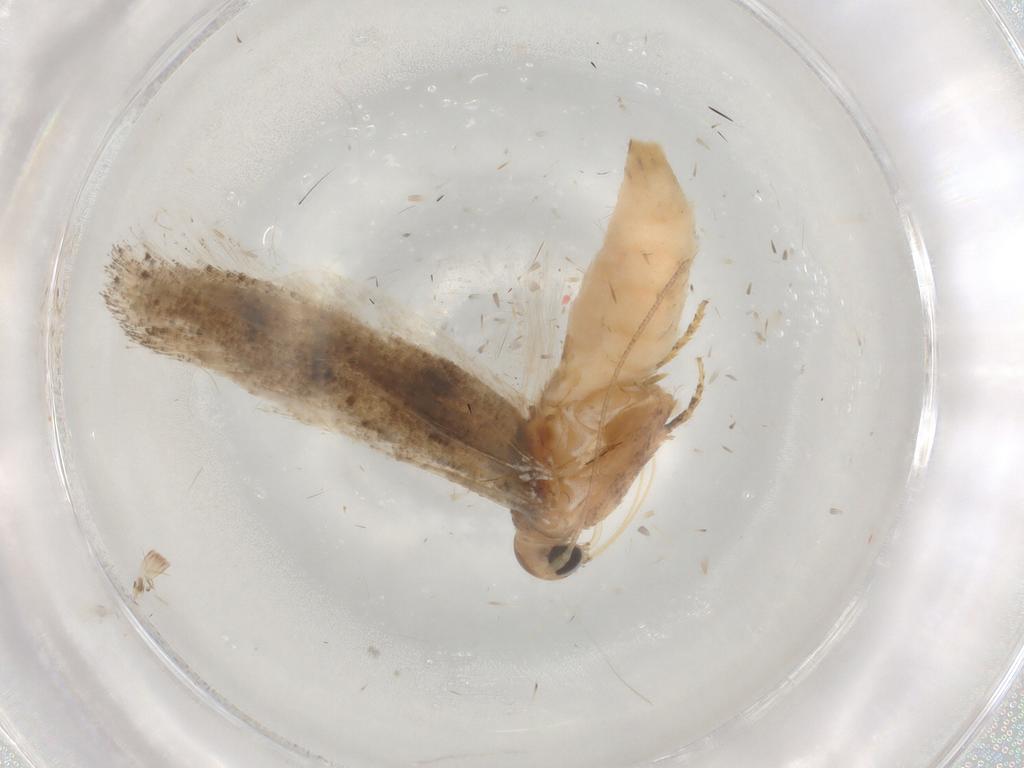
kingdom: Animalia
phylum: Arthropoda
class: Insecta
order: Lepidoptera
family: Gelechiidae
